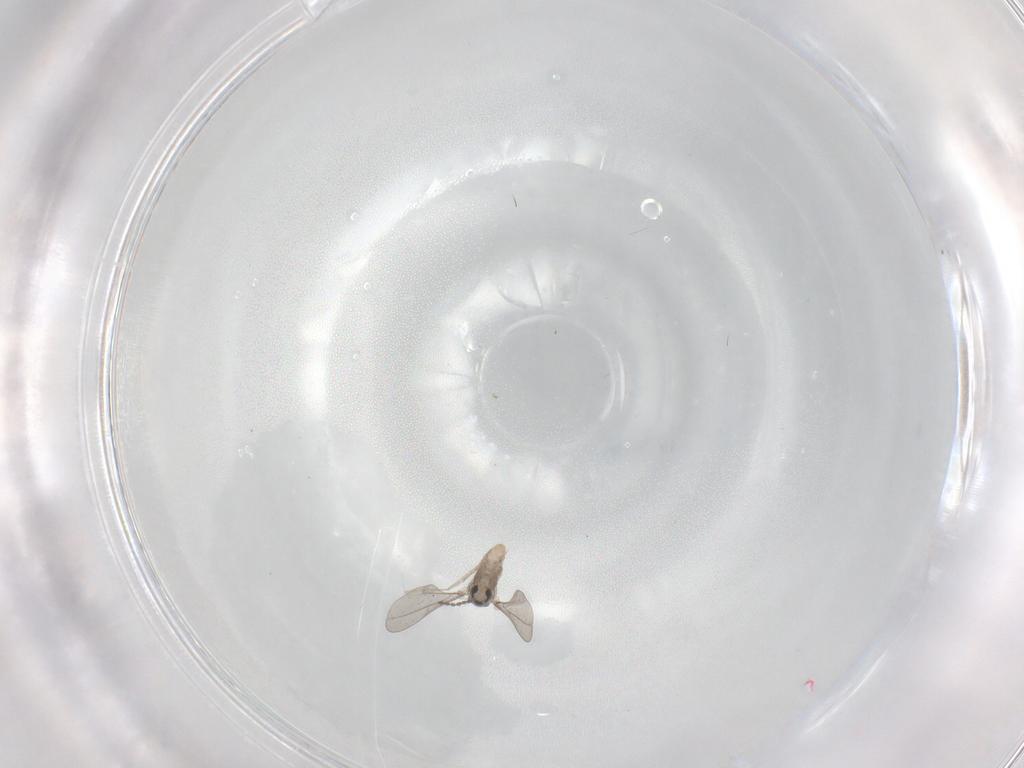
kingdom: Animalia
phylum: Arthropoda
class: Insecta
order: Diptera
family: Cecidomyiidae
